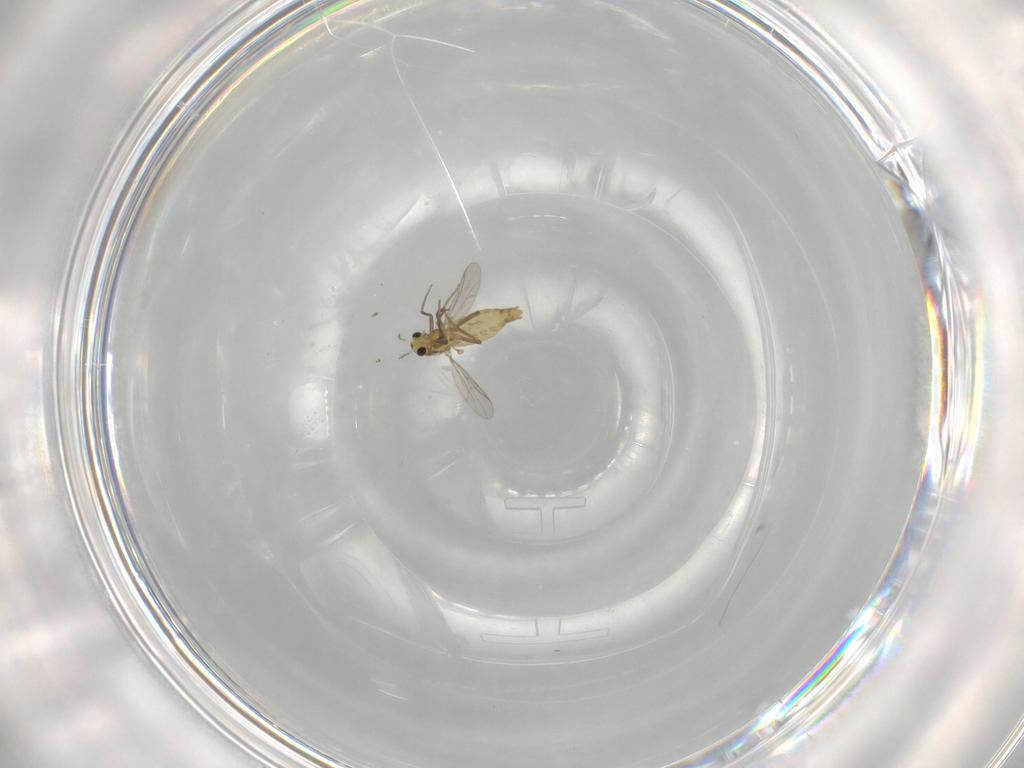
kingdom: Animalia
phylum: Arthropoda
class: Insecta
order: Diptera
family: Chironomidae
